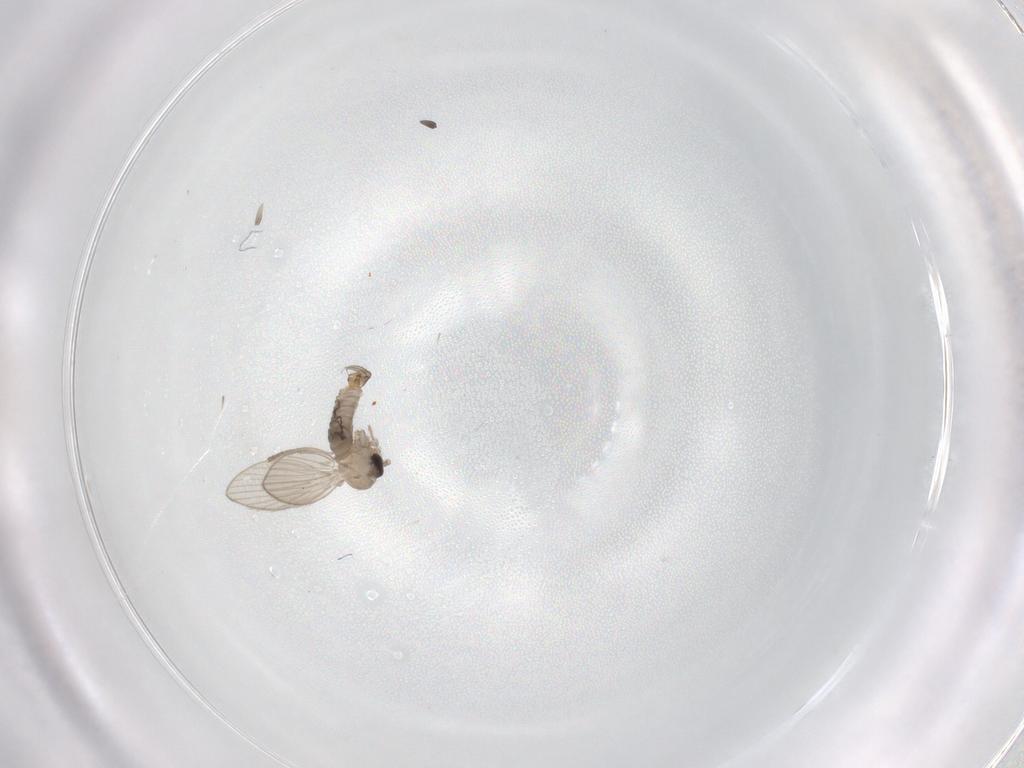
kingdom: Animalia
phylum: Arthropoda
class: Insecta
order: Diptera
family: Psychodidae
